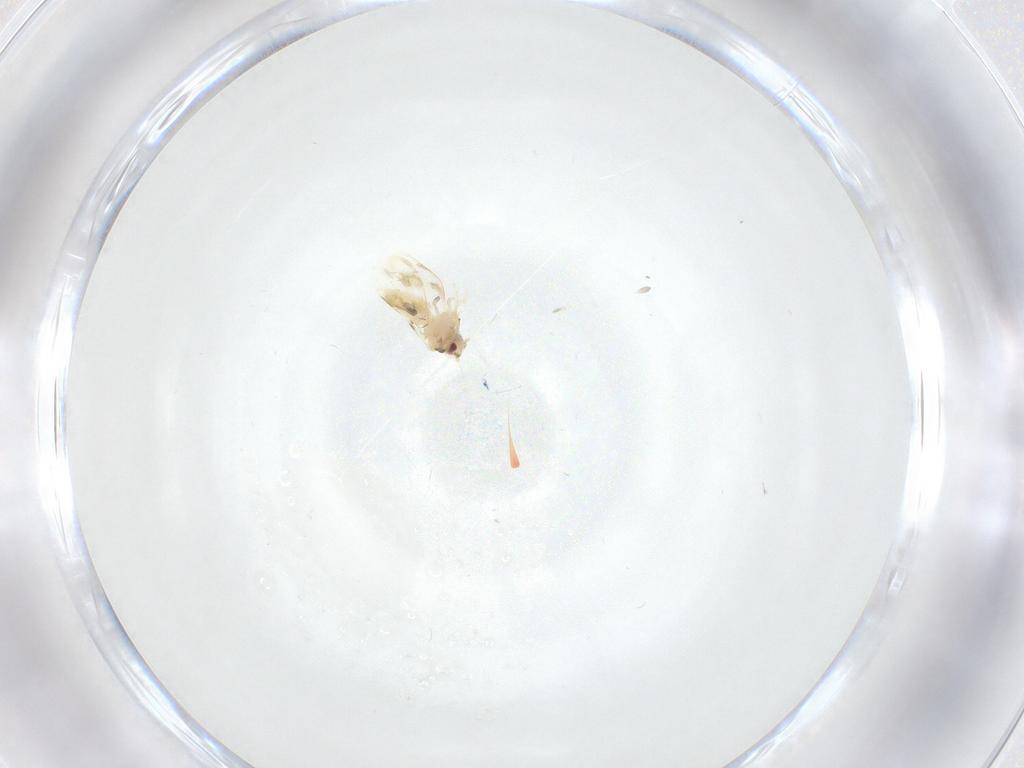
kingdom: Animalia
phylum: Arthropoda
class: Insecta
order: Hemiptera
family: Aleyrodidae
